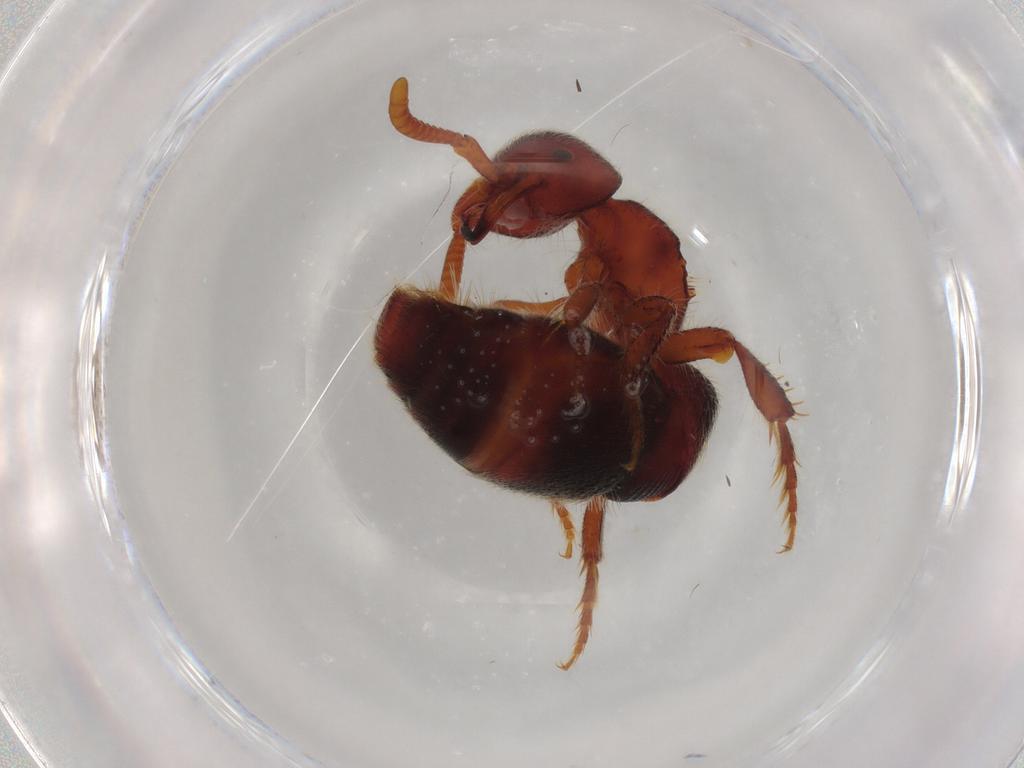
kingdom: Animalia
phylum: Arthropoda
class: Insecta
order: Hymenoptera
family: Mutillidae
